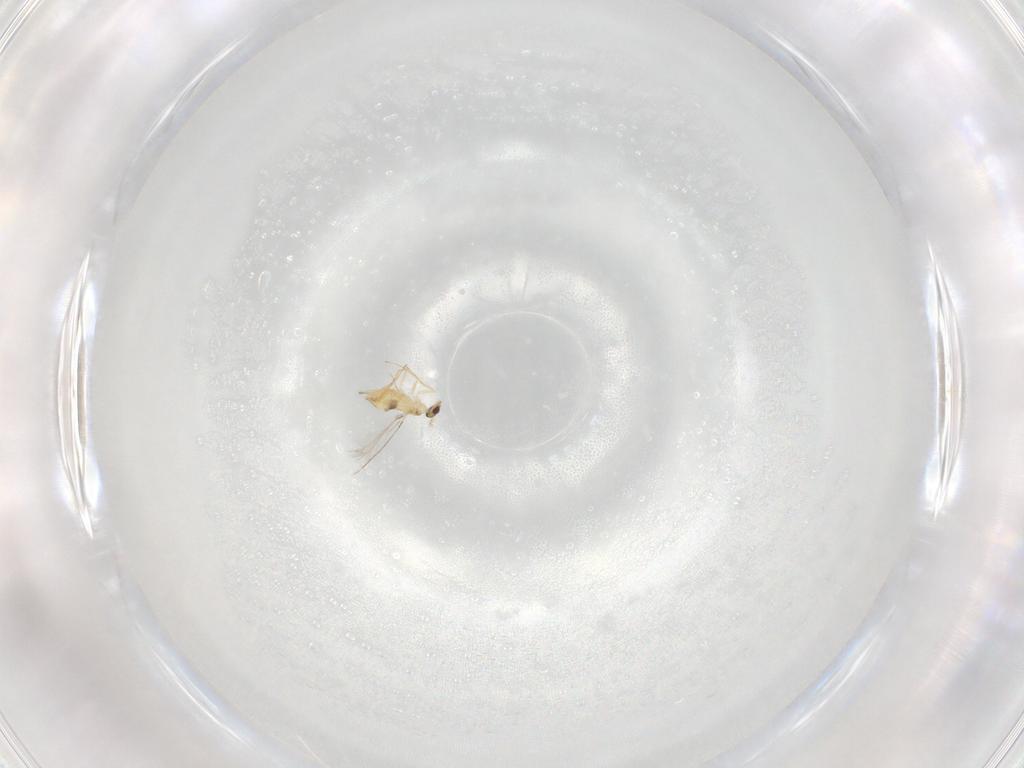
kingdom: Animalia
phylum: Arthropoda
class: Insecta
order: Hymenoptera
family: Mymaridae
